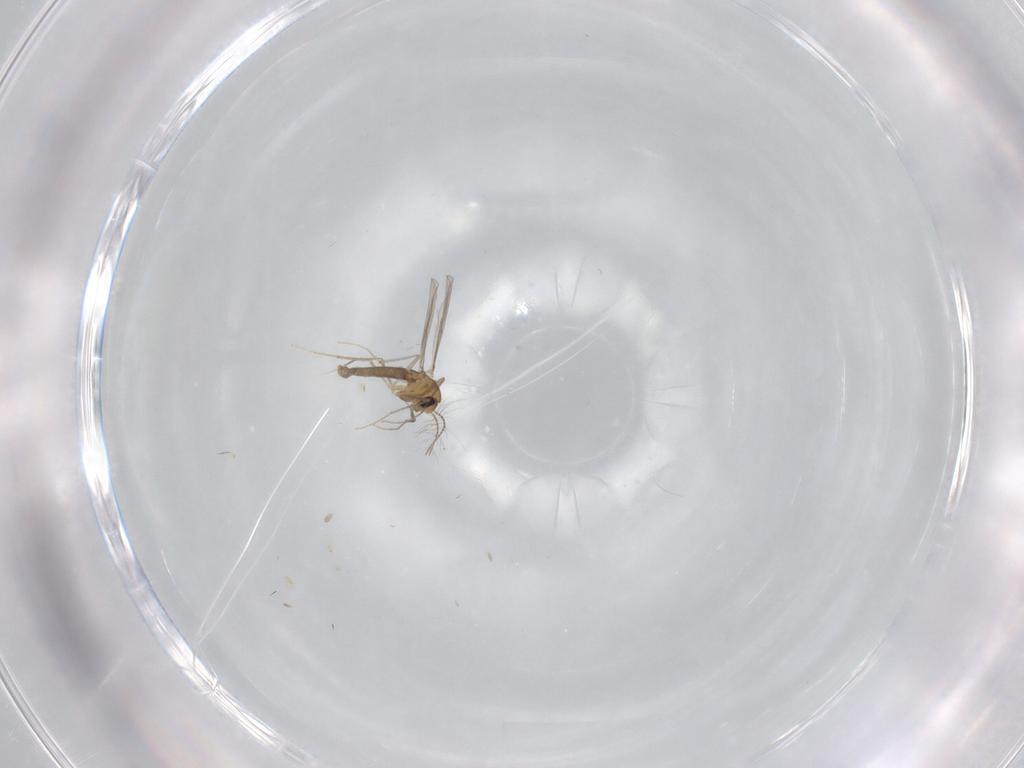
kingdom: Animalia
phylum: Arthropoda
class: Insecta
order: Diptera
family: Chironomidae
